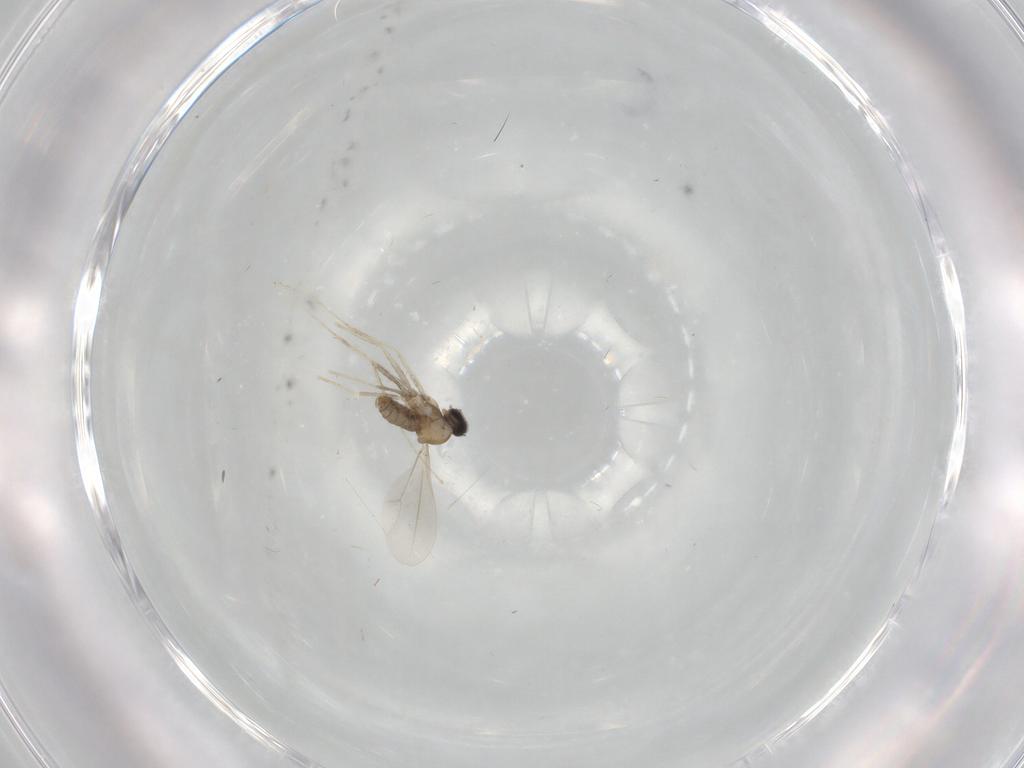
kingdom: Animalia
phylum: Arthropoda
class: Insecta
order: Diptera
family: Cecidomyiidae
